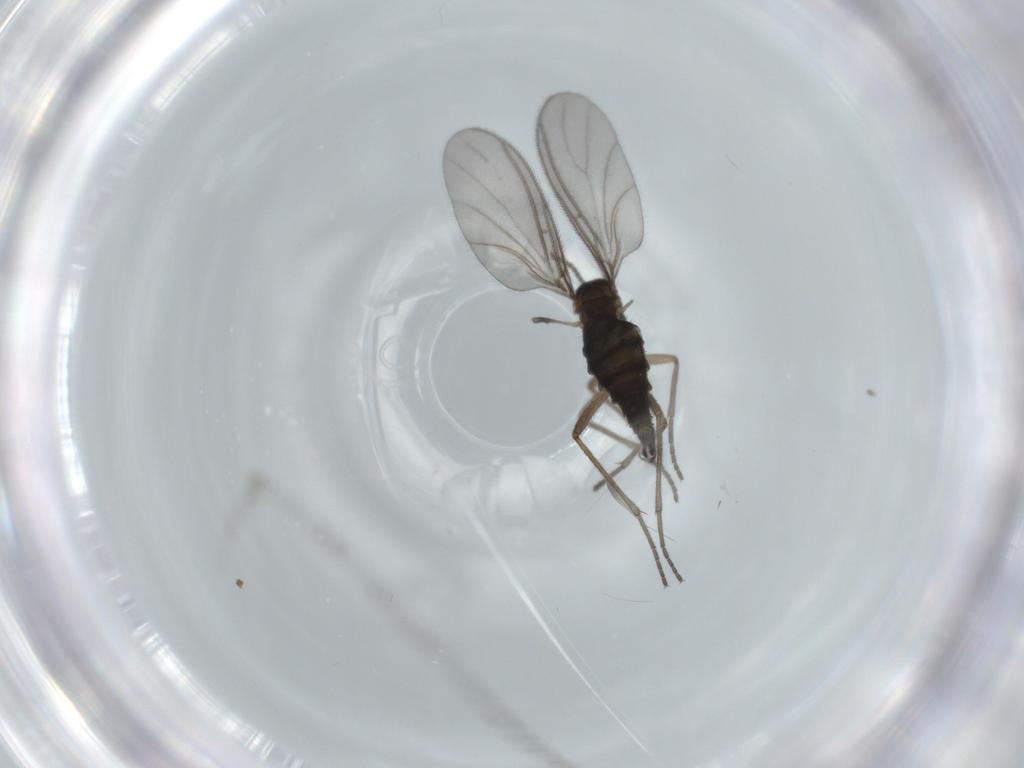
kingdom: Animalia
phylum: Arthropoda
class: Insecta
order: Diptera
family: Sciaridae
